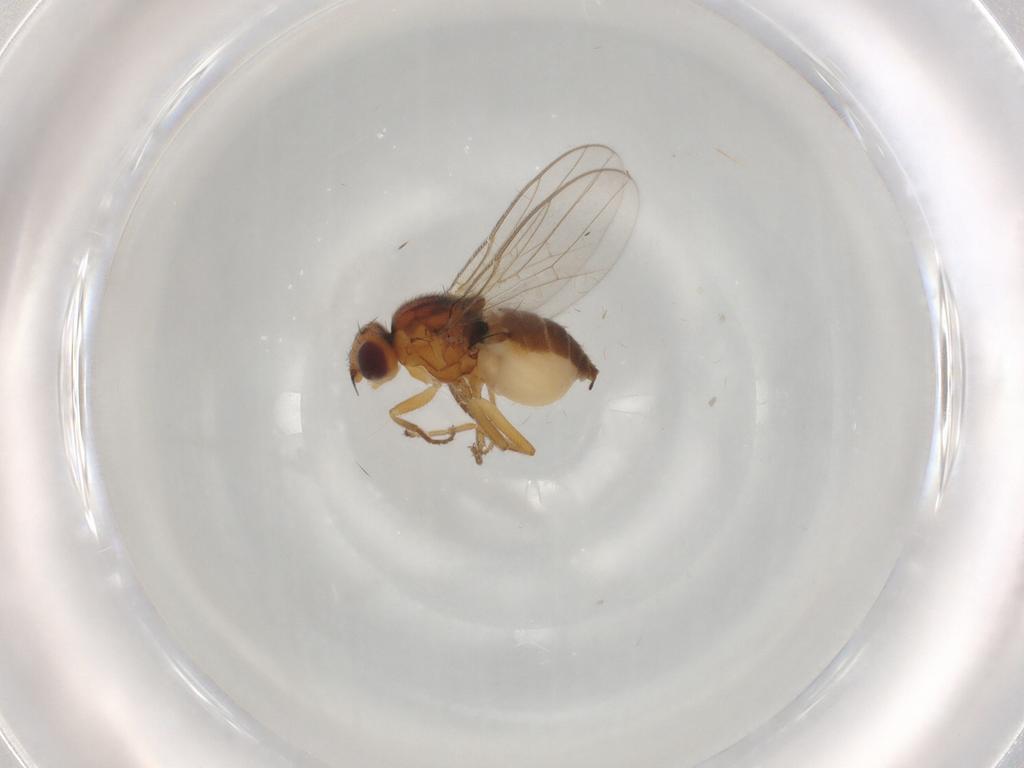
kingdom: Animalia
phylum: Arthropoda
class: Insecta
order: Diptera
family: Chloropidae
